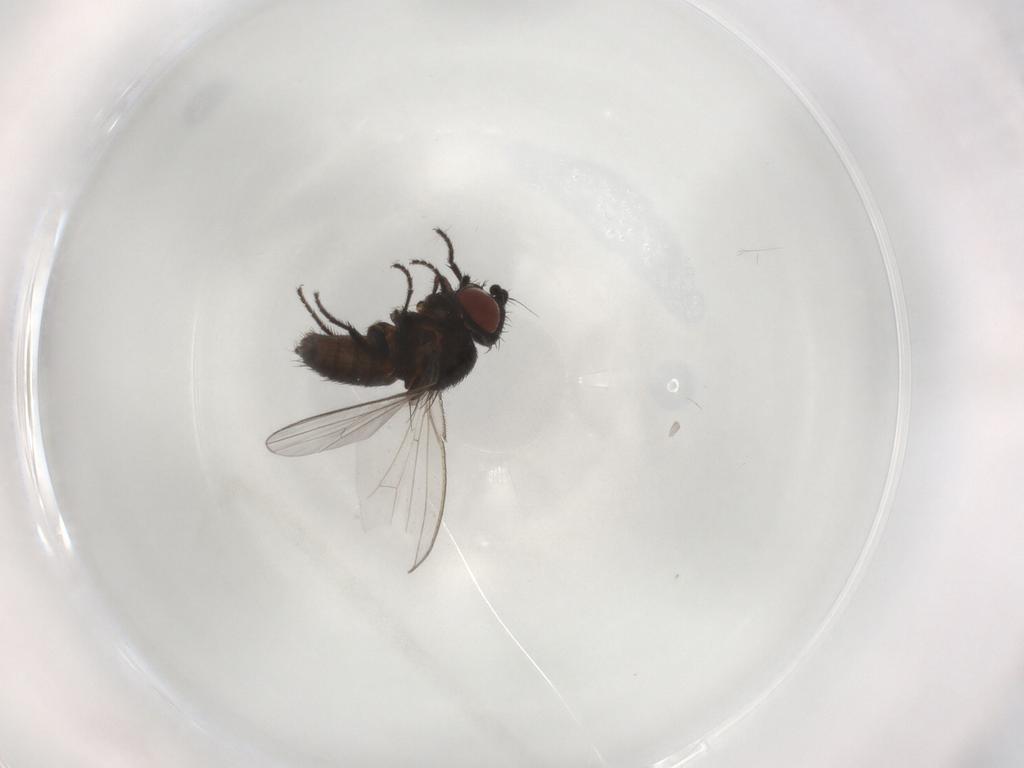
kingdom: Animalia
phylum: Arthropoda
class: Insecta
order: Diptera
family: Milichiidae
